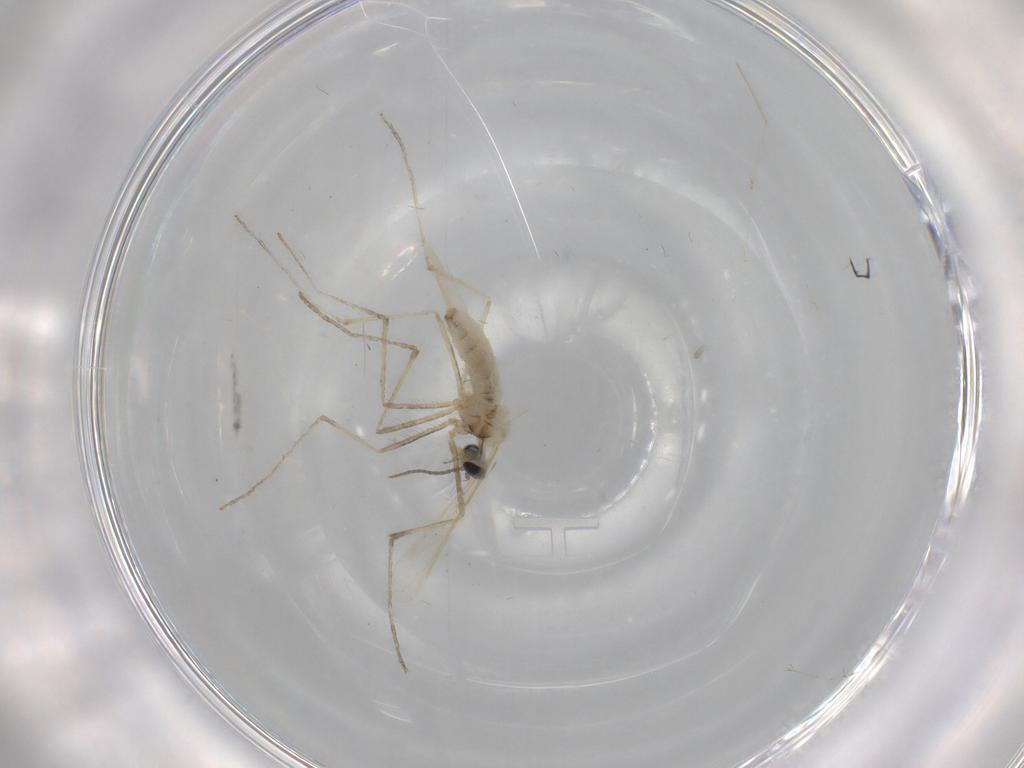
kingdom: Animalia
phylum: Arthropoda
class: Insecta
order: Diptera
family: Cecidomyiidae
